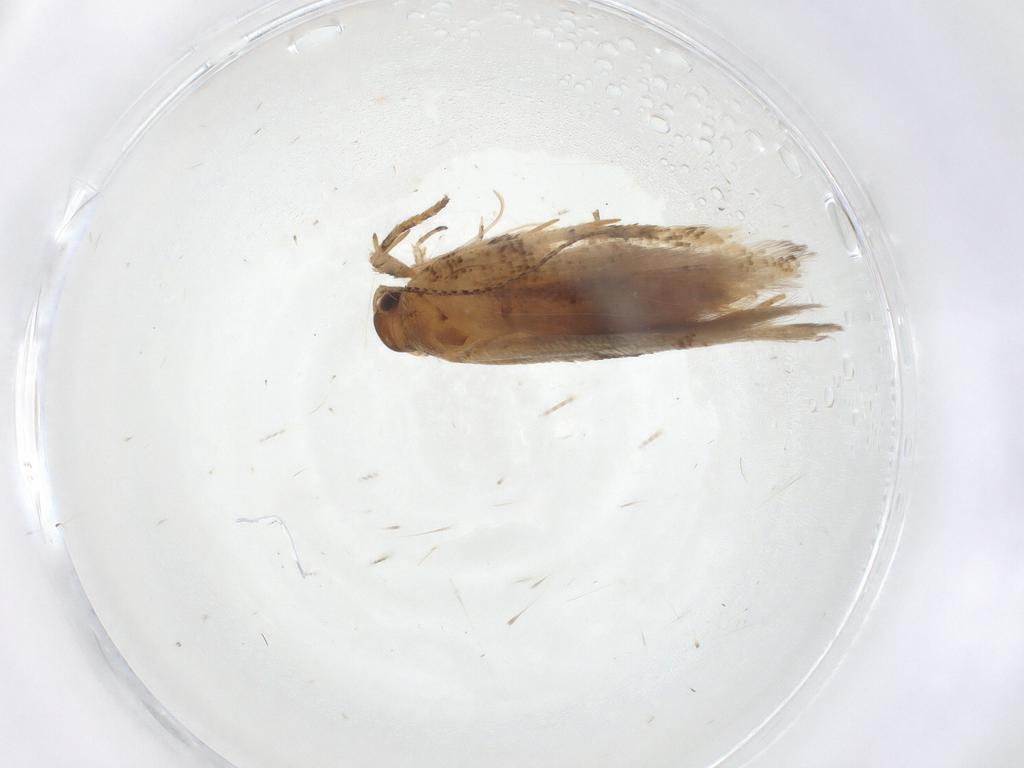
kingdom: Animalia
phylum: Arthropoda
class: Insecta
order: Lepidoptera
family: Gelechiidae
